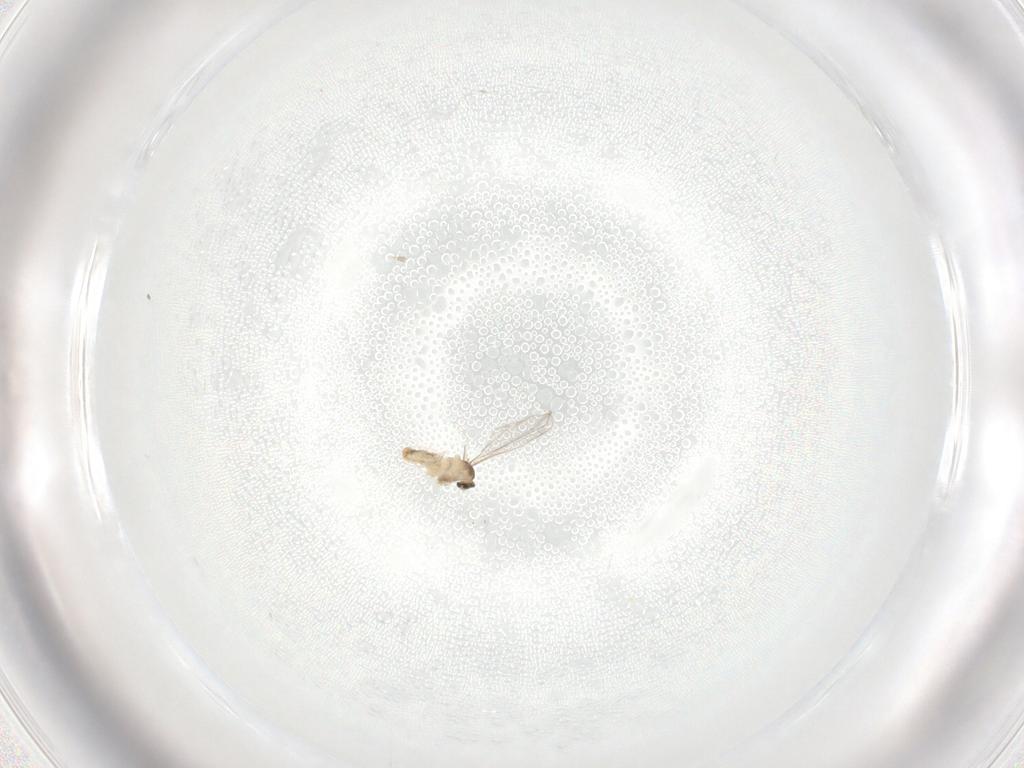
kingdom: Animalia
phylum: Arthropoda
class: Insecta
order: Diptera
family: Cecidomyiidae
